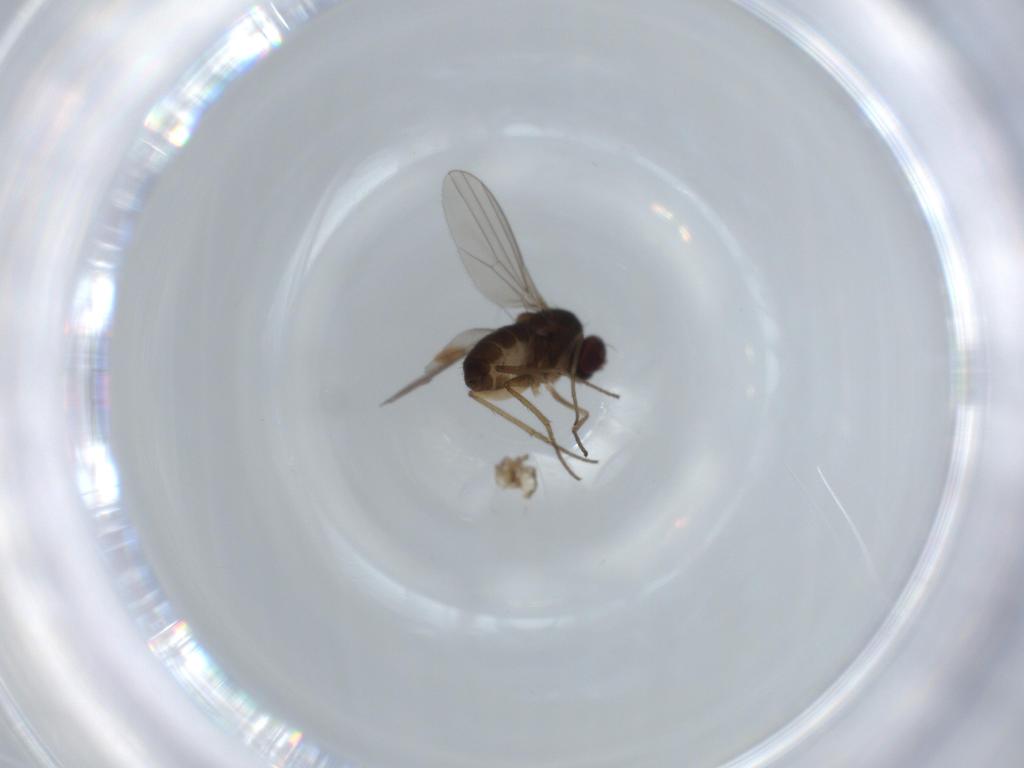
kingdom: Animalia
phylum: Arthropoda
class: Insecta
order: Diptera
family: Dolichopodidae
